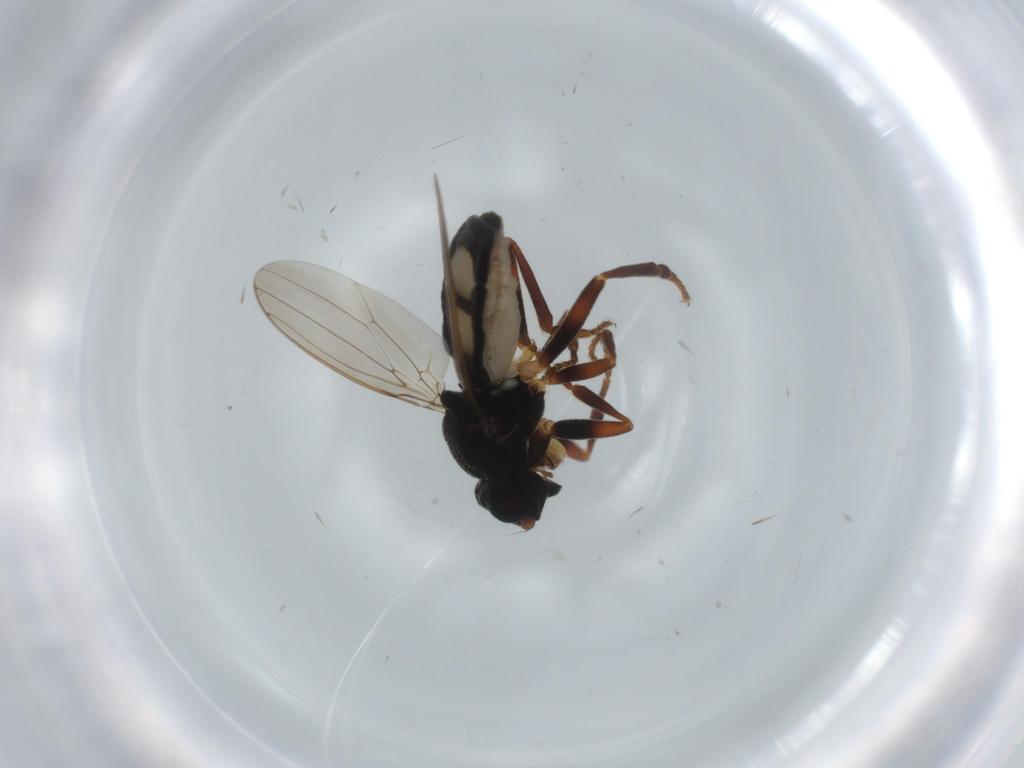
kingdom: Animalia
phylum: Arthropoda
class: Insecta
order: Diptera
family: Sphaeroceridae
